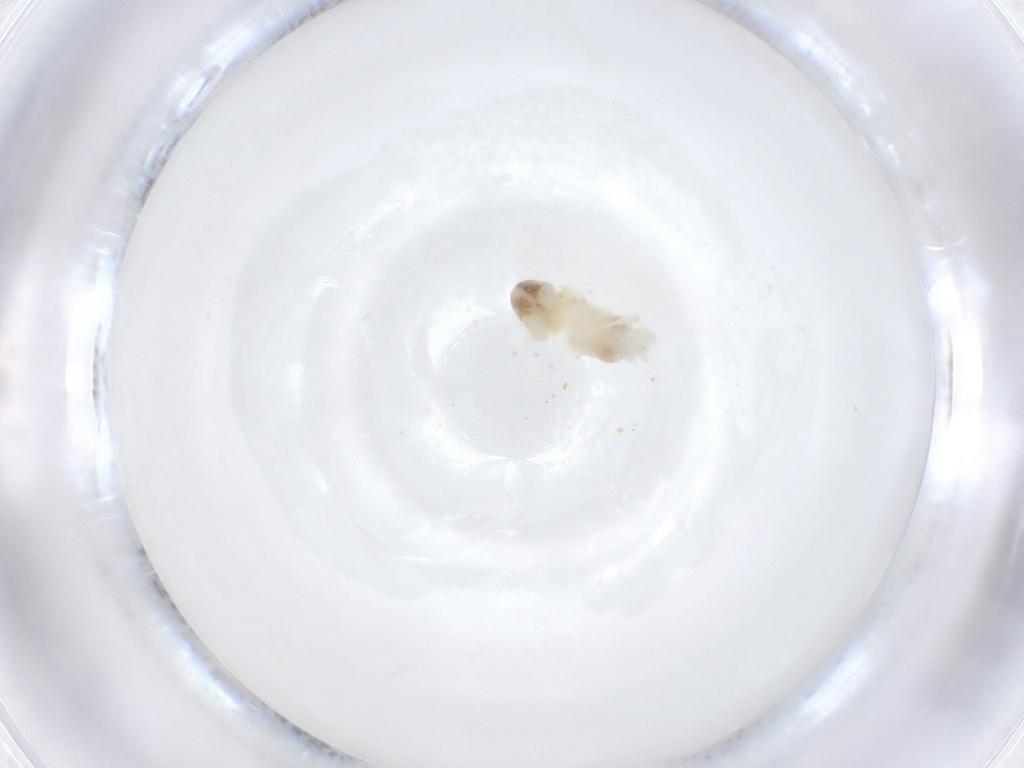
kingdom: Animalia
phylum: Arthropoda
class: Arachnida
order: Trombidiformes
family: Rhagidiidae
